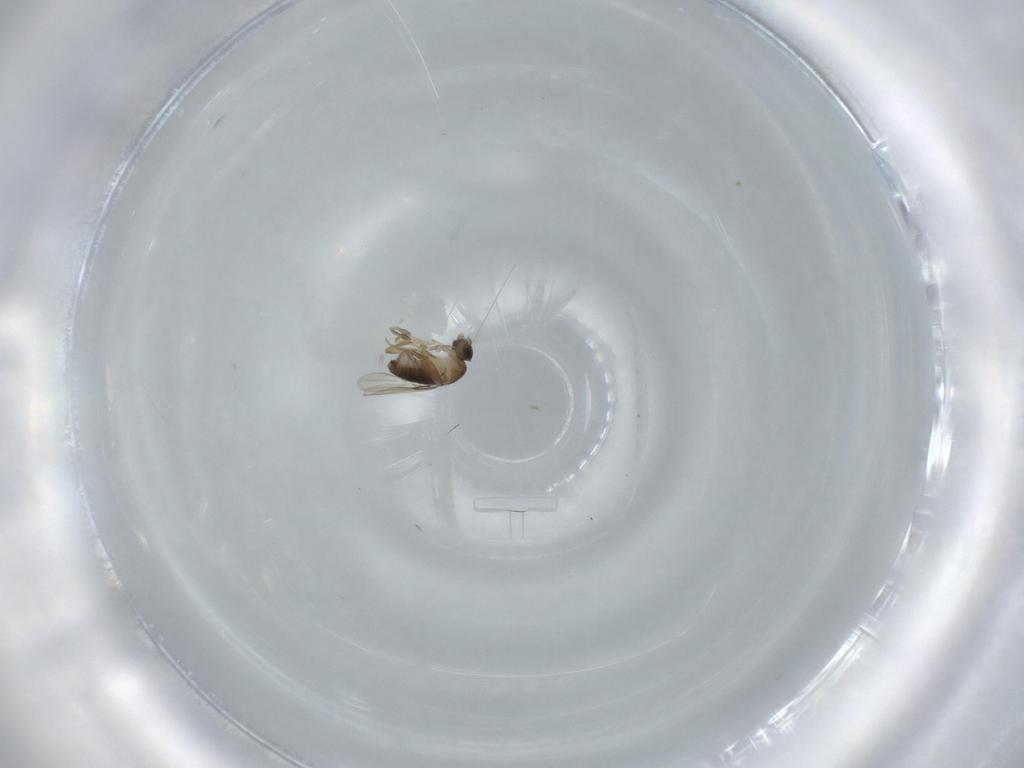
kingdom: Animalia
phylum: Arthropoda
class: Insecta
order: Diptera
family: Phoridae
